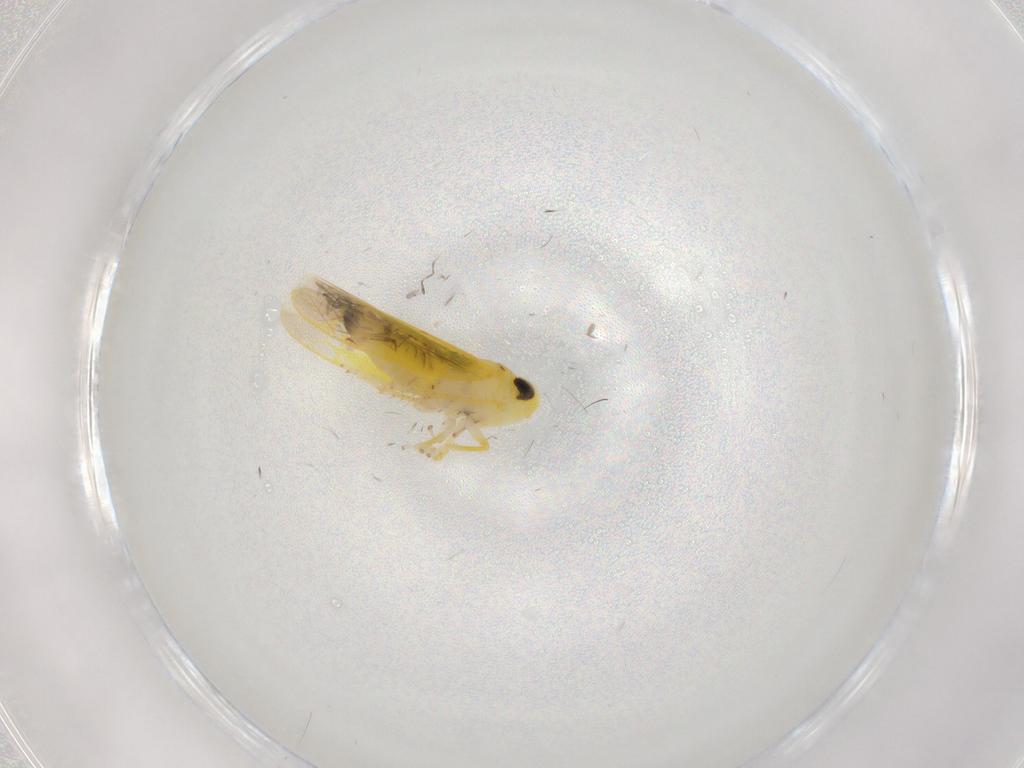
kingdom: Animalia
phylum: Arthropoda
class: Insecta
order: Hemiptera
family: Cicadellidae
